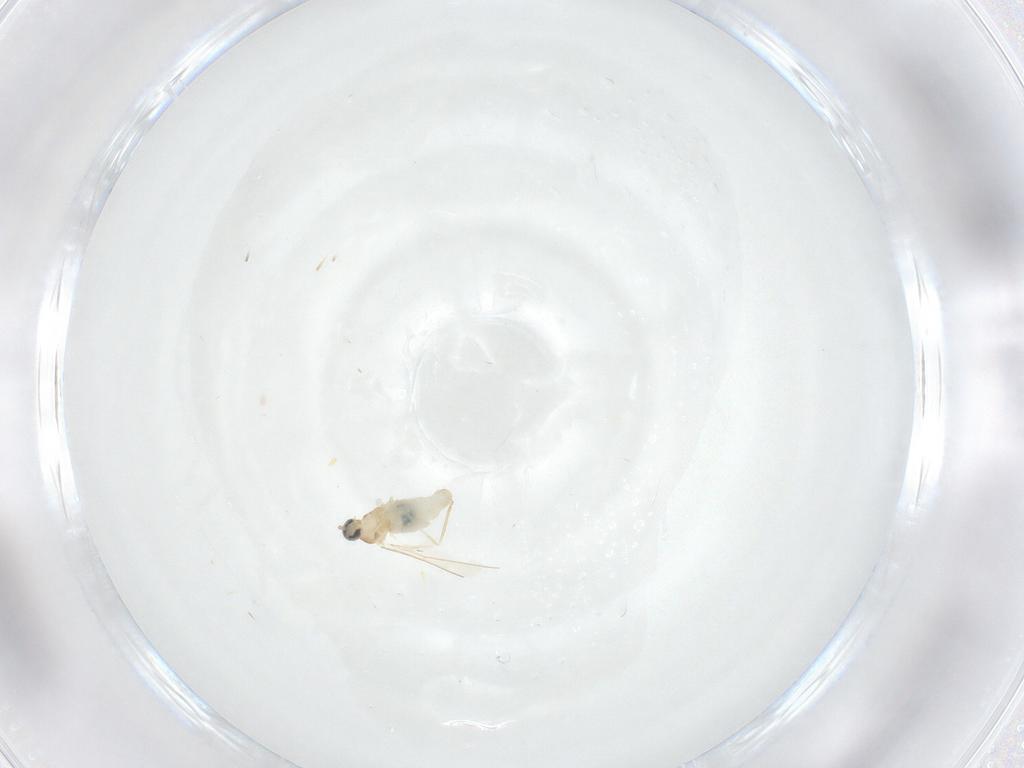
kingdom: Animalia
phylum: Arthropoda
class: Insecta
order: Diptera
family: Cecidomyiidae
